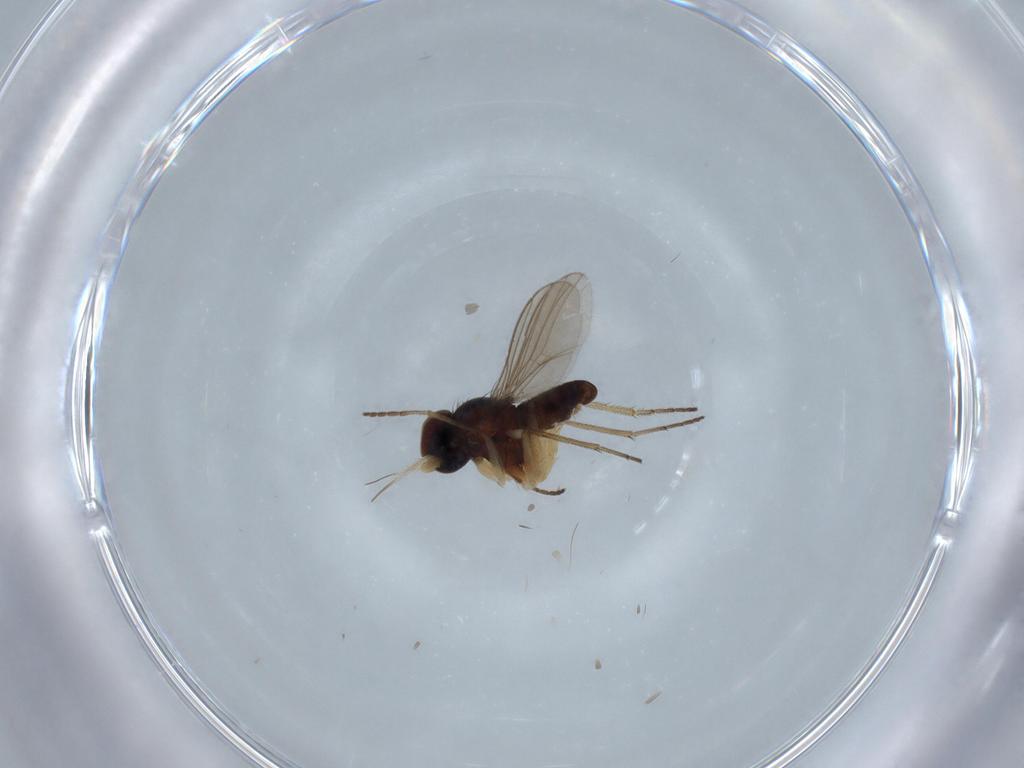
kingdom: Animalia
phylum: Arthropoda
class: Insecta
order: Diptera
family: Dolichopodidae
